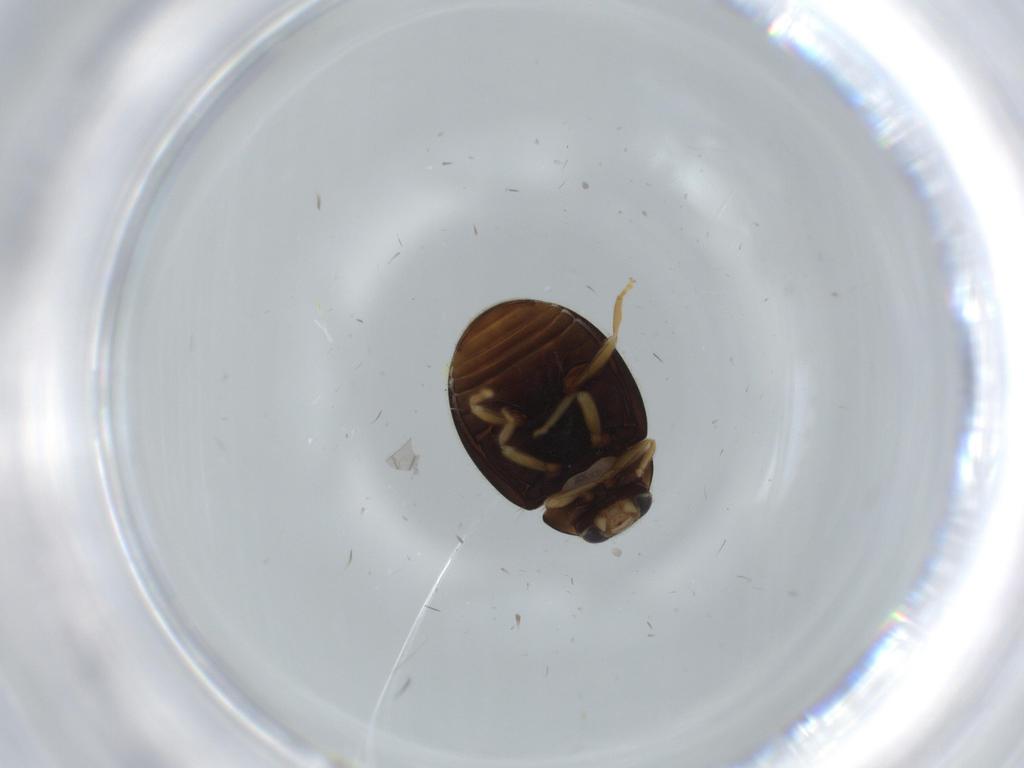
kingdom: Animalia
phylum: Arthropoda
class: Insecta
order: Coleoptera
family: Coccinellidae
